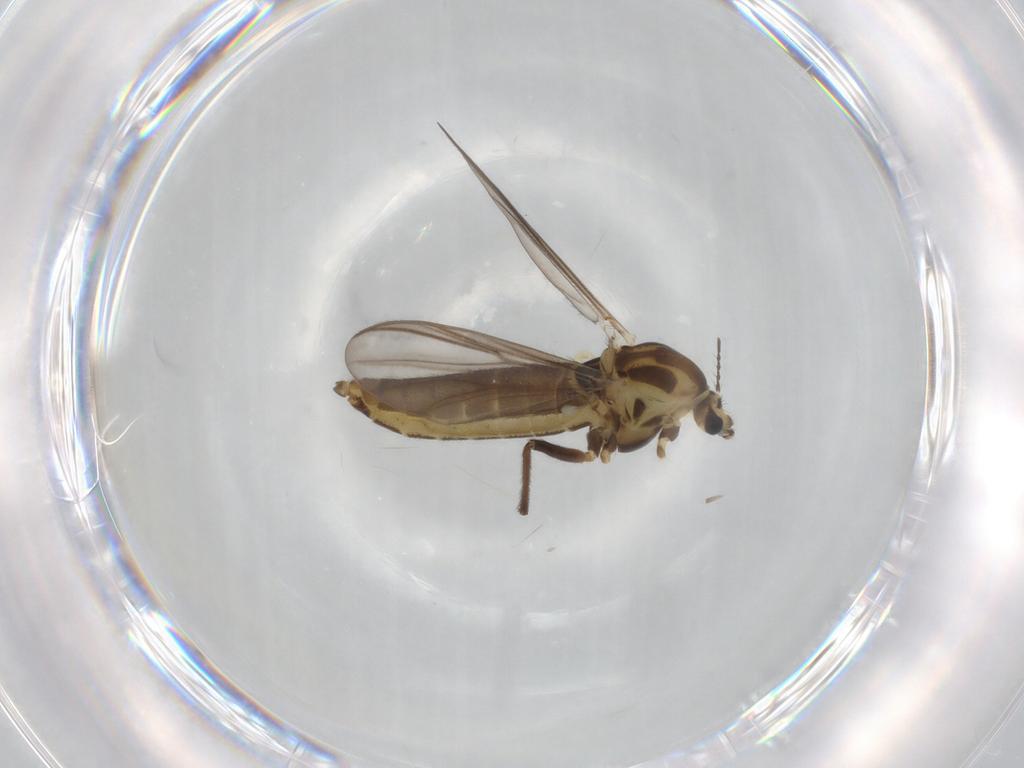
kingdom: Animalia
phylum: Arthropoda
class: Insecta
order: Diptera
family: Chironomidae
